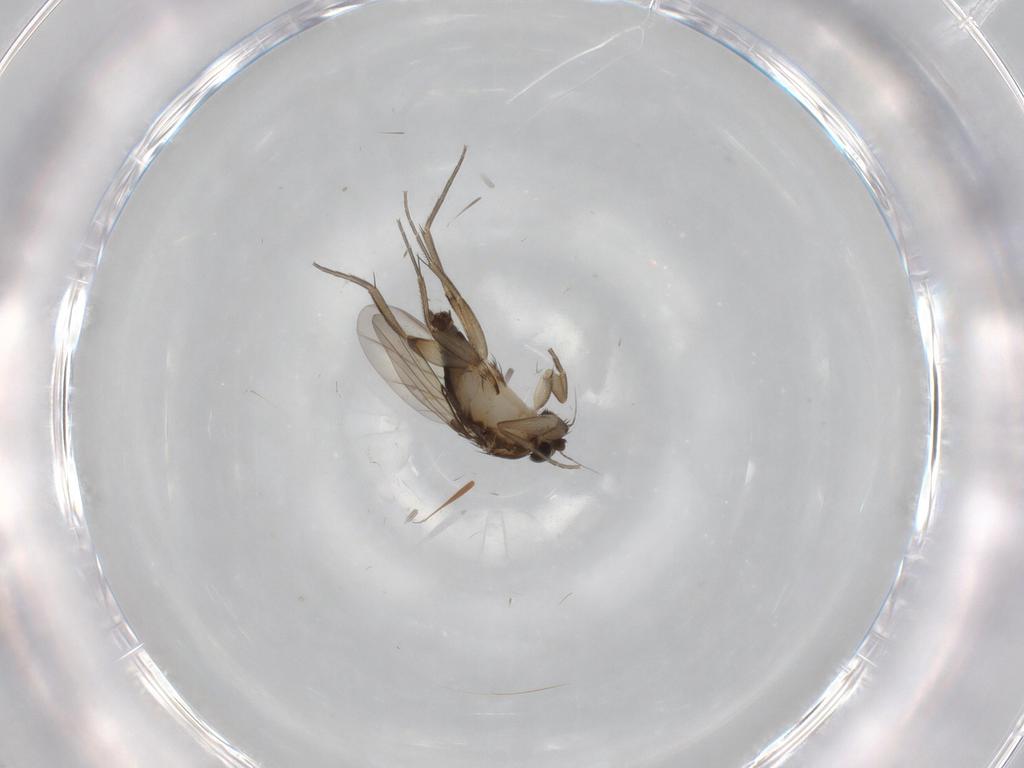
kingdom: Animalia
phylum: Arthropoda
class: Insecta
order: Diptera
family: Phoridae
